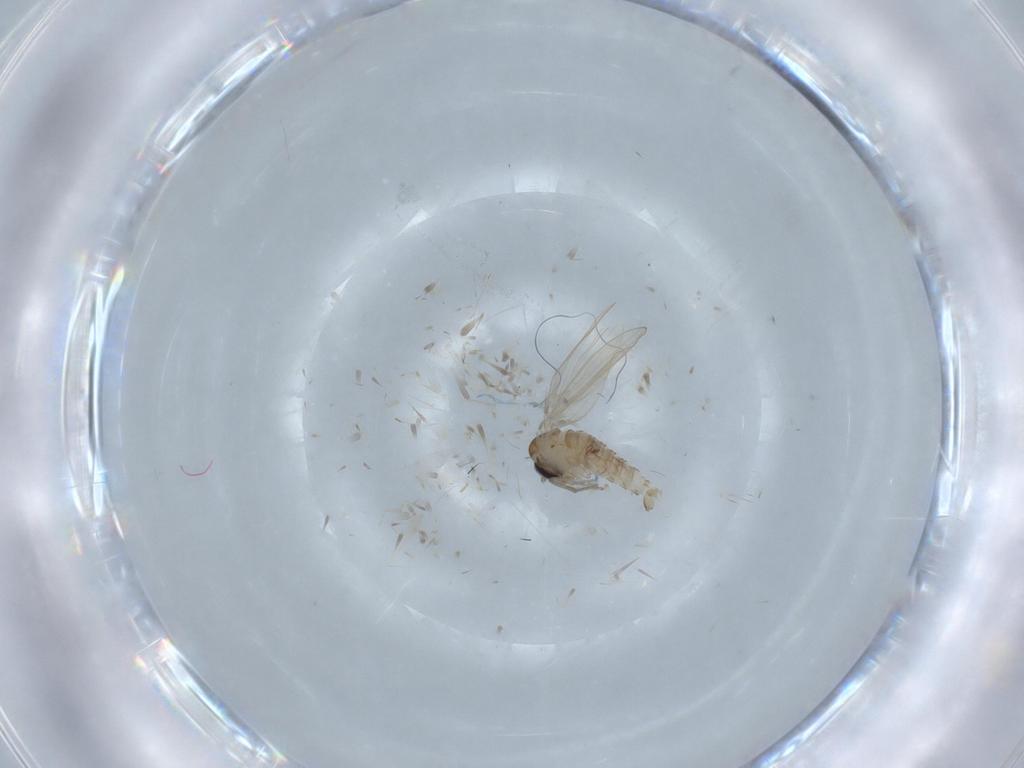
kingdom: Animalia
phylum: Arthropoda
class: Insecta
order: Diptera
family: Psychodidae
